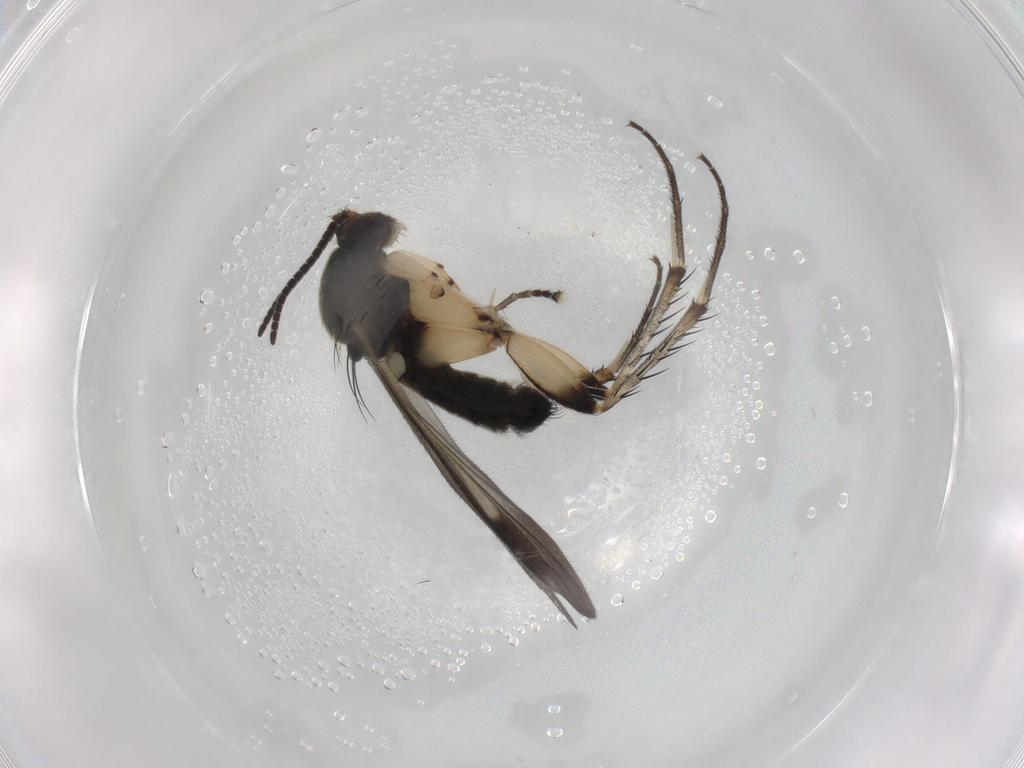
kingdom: Animalia
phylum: Arthropoda
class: Insecta
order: Diptera
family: Mycetophilidae
